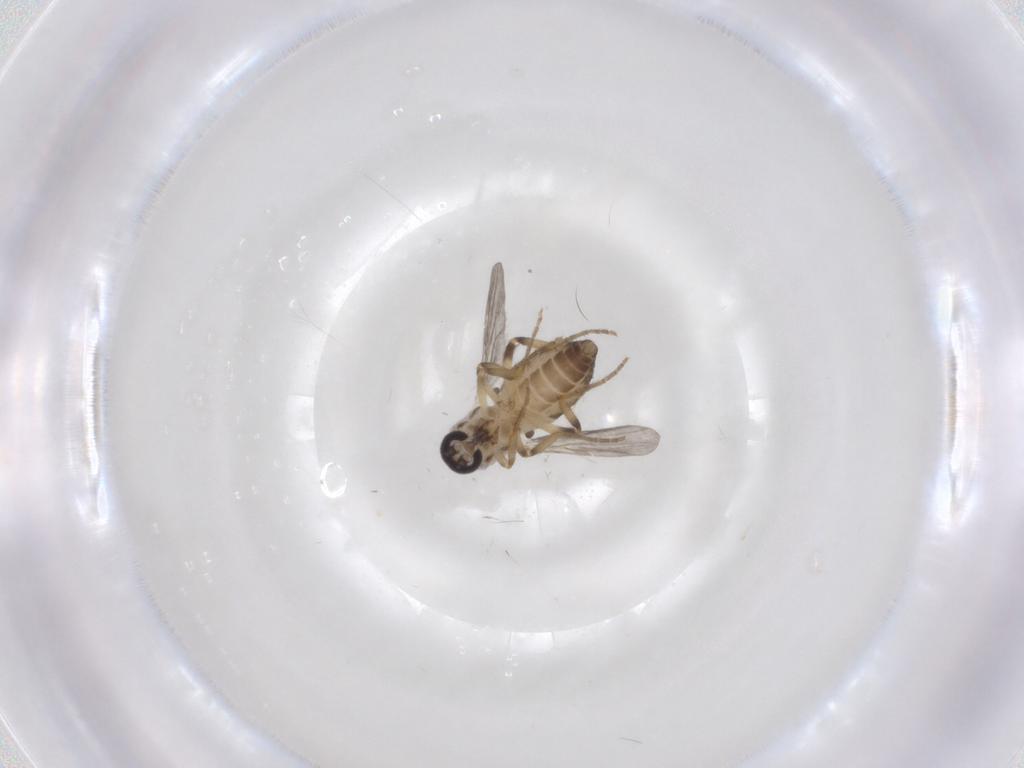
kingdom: Animalia
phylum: Arthropoda
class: Insecta
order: Diptera
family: Ceratopogonidae
